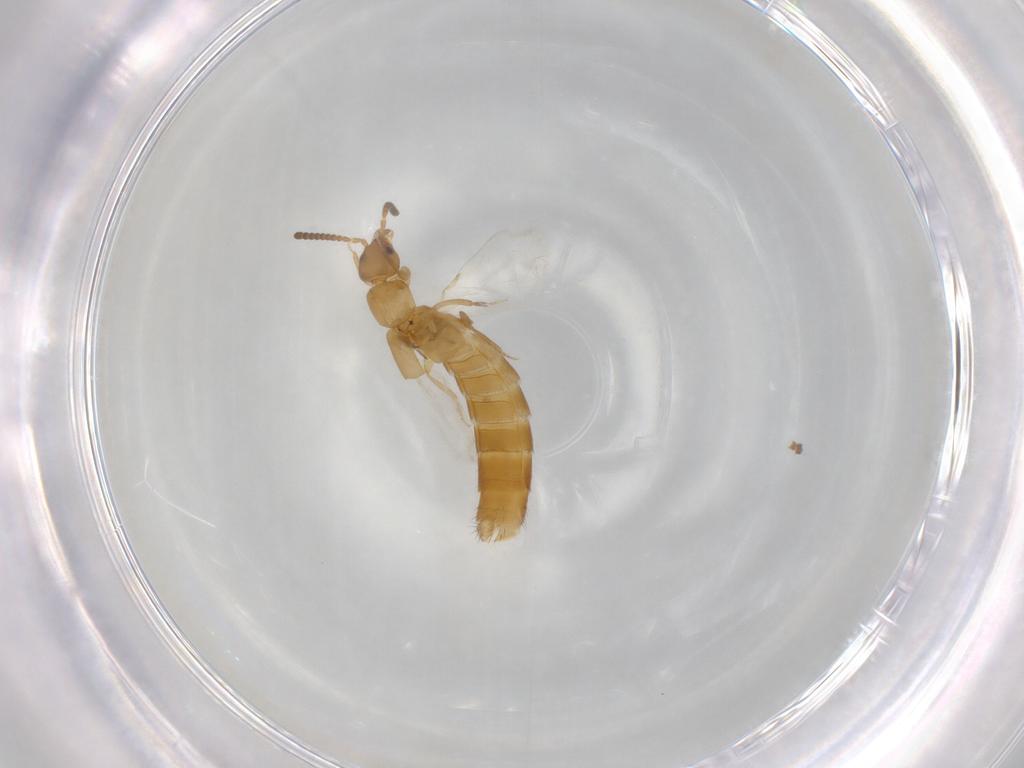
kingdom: Animalia
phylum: Arthropoda
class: Insecta
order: Coleoptera
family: Staphylinidae
